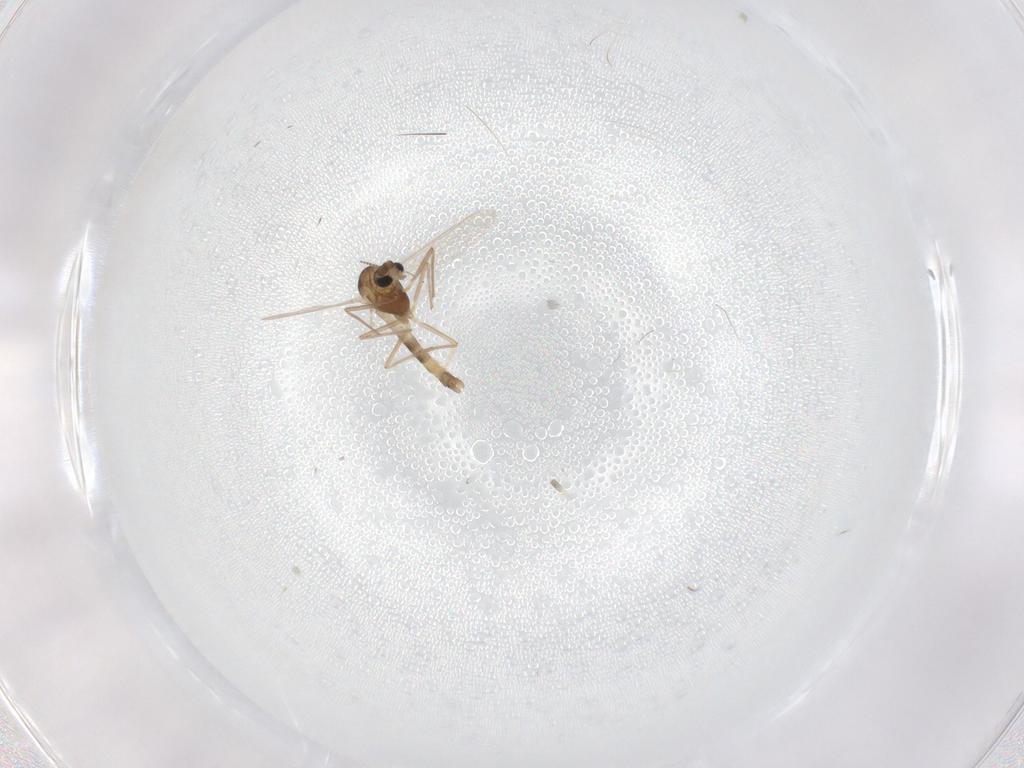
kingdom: Animalia
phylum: Arthropoda
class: Insecta
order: Diptera
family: Chironomidae
